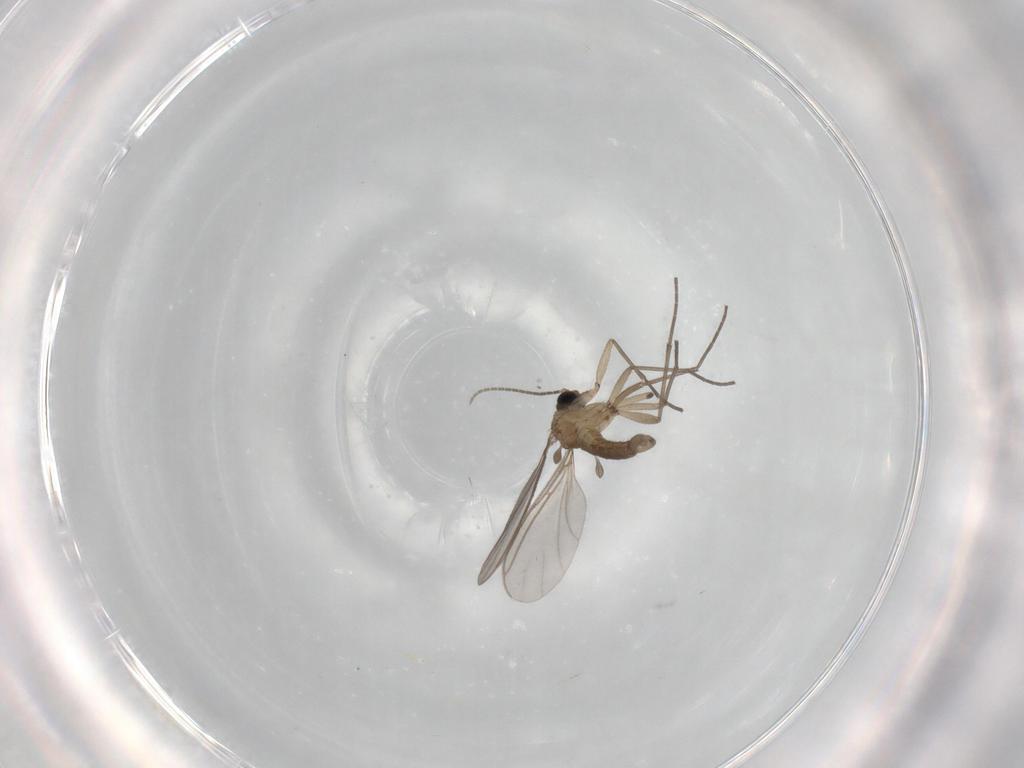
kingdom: Animalia
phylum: Arthropoda
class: Insecta
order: Diptera
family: Sciaridae
